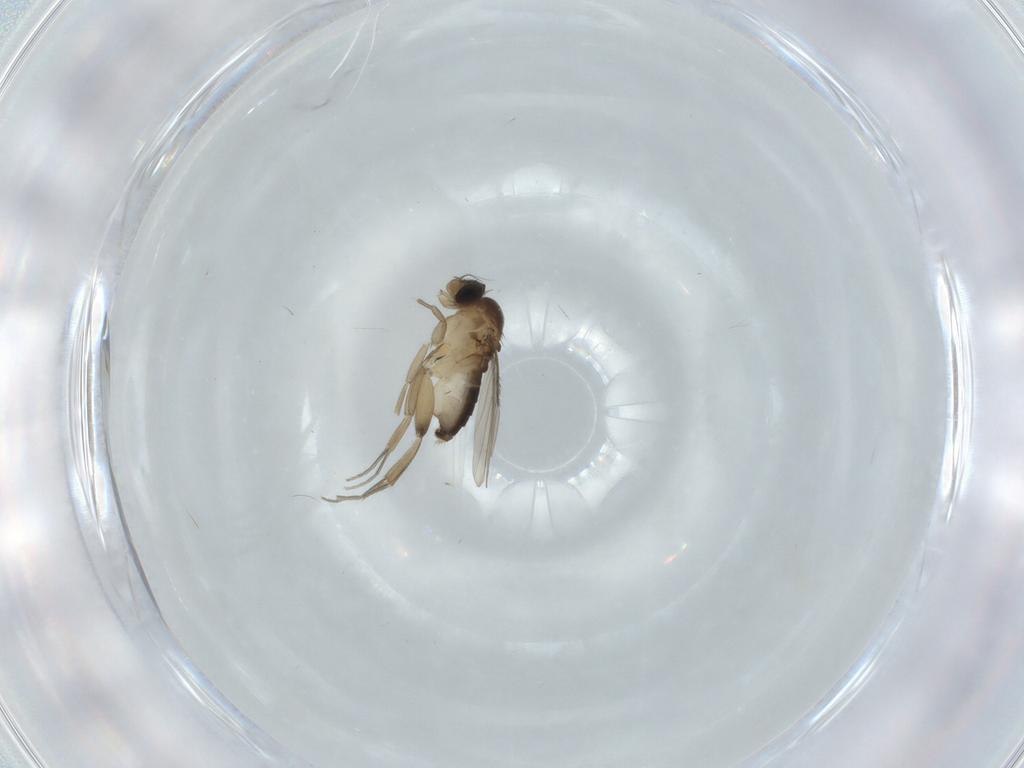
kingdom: Animalia
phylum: Arthropoda
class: Insecta
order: Diptera
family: Phoridae
